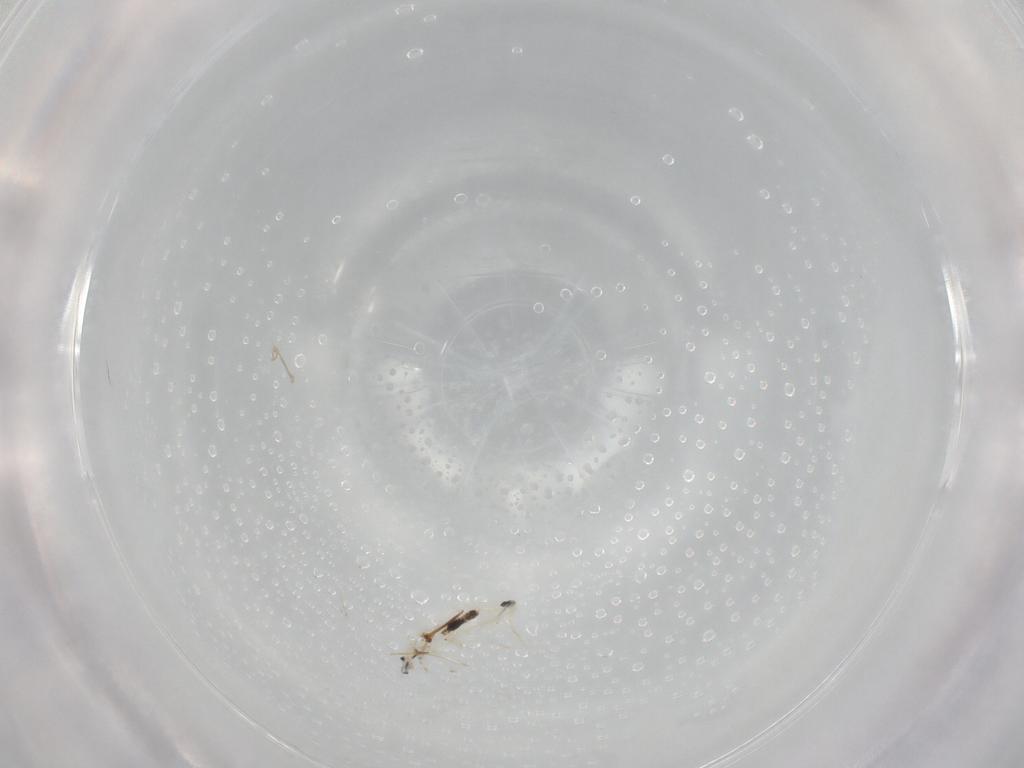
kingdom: Animalia
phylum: Arthropoda
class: Collembola
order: Entomobryomorpha
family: Entomobryidae
